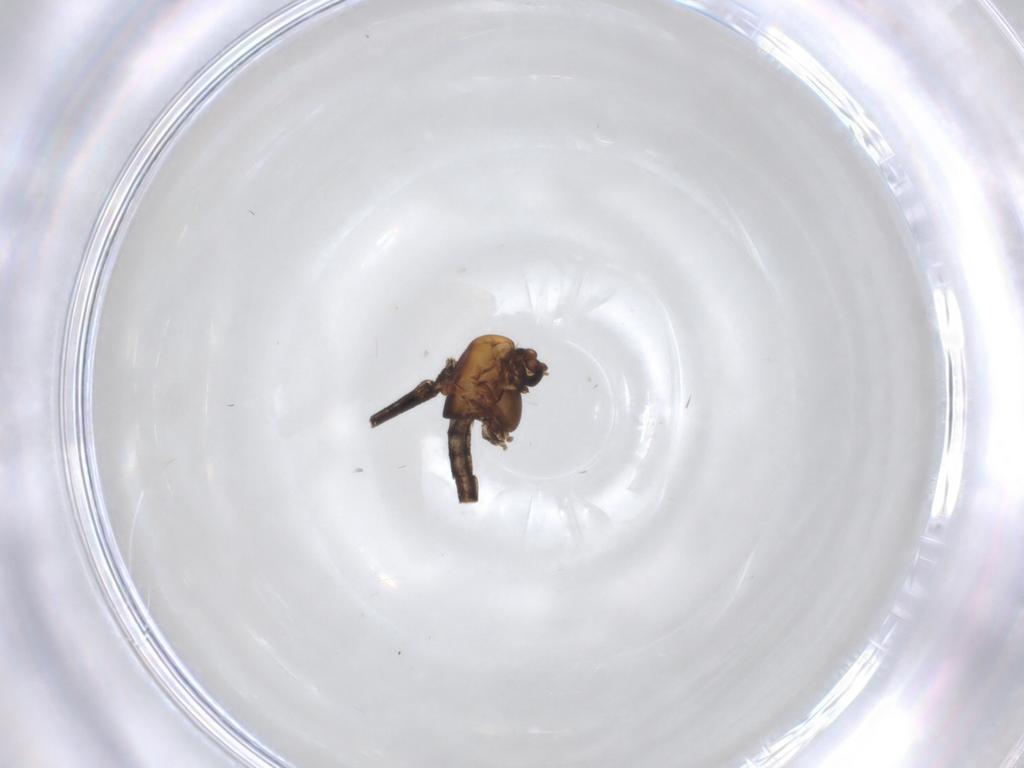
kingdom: Animalia
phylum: Arthropoda
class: Insecta
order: Diptera
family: Chironomidae
